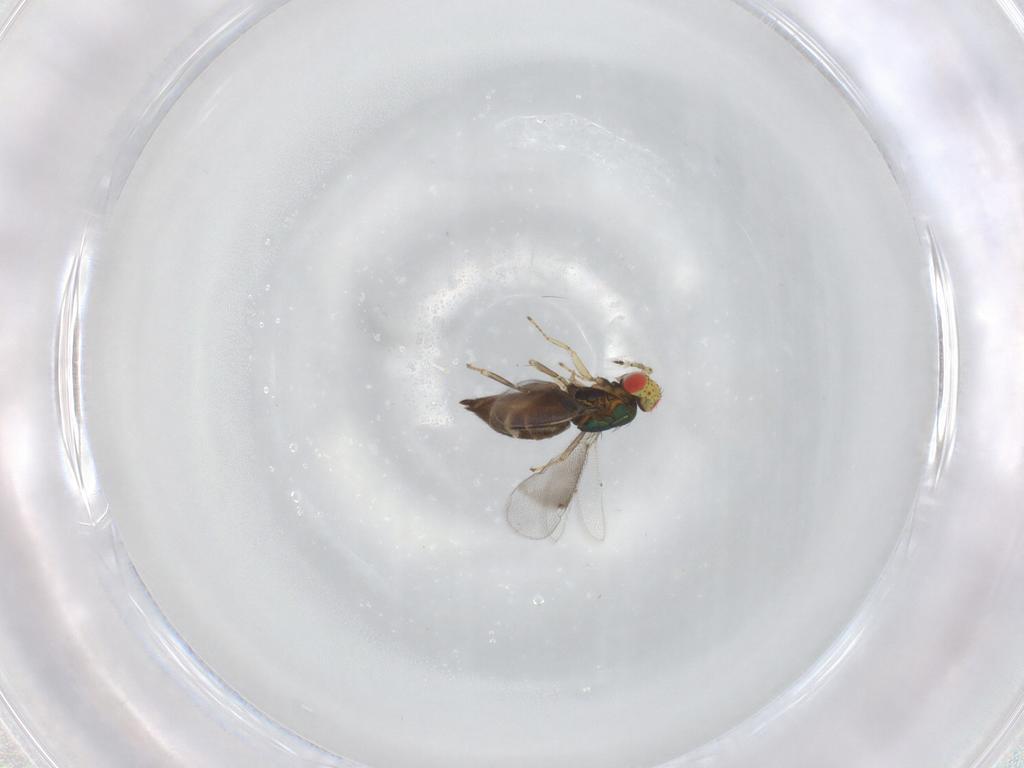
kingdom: Animalia
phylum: Arthropoda
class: Insecta
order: Hymenoptera
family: Eulophidae
